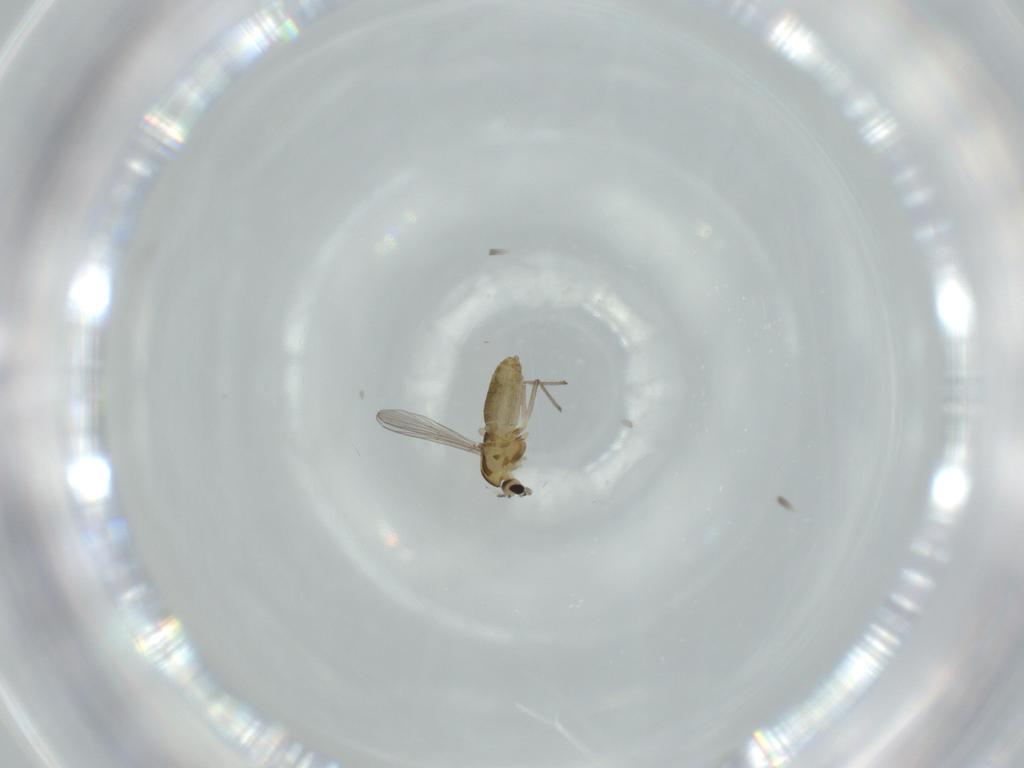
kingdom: Animalia
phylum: Arthropoda
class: Insecta
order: Diptera
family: Chironomidae
